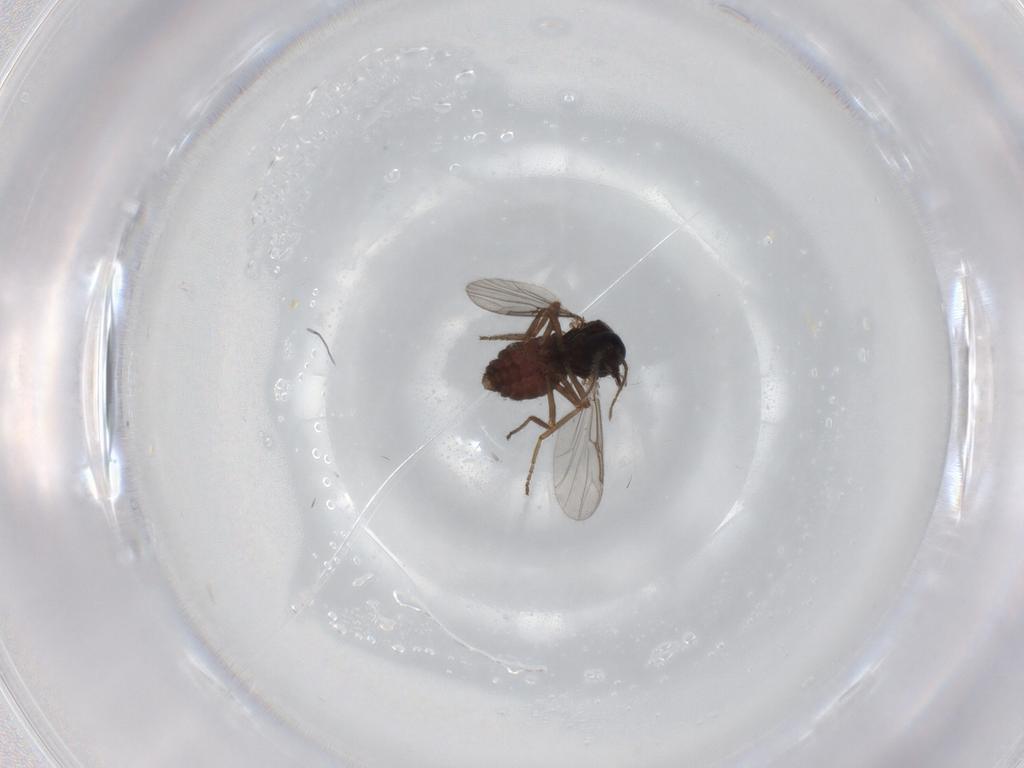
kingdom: Animalia
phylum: Arthropoda
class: Insecta
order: Diptera
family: Ceratopogonidae
